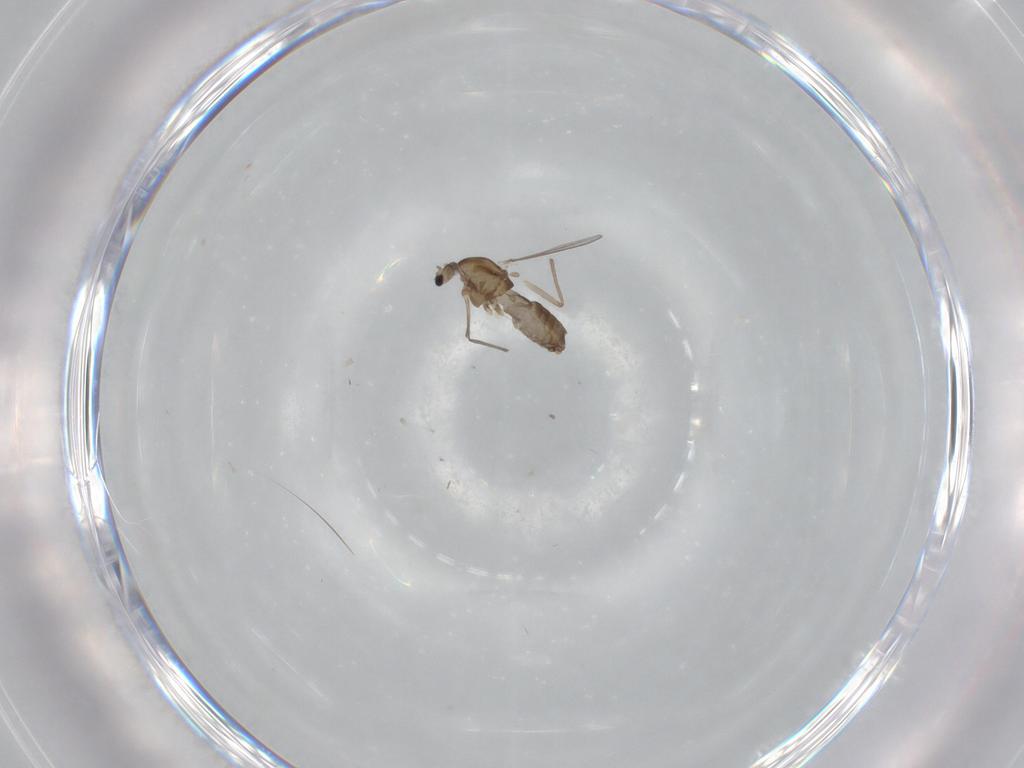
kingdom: Animalia
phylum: Arthropoda
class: Insecta
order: Diptera
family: Chironomidae
